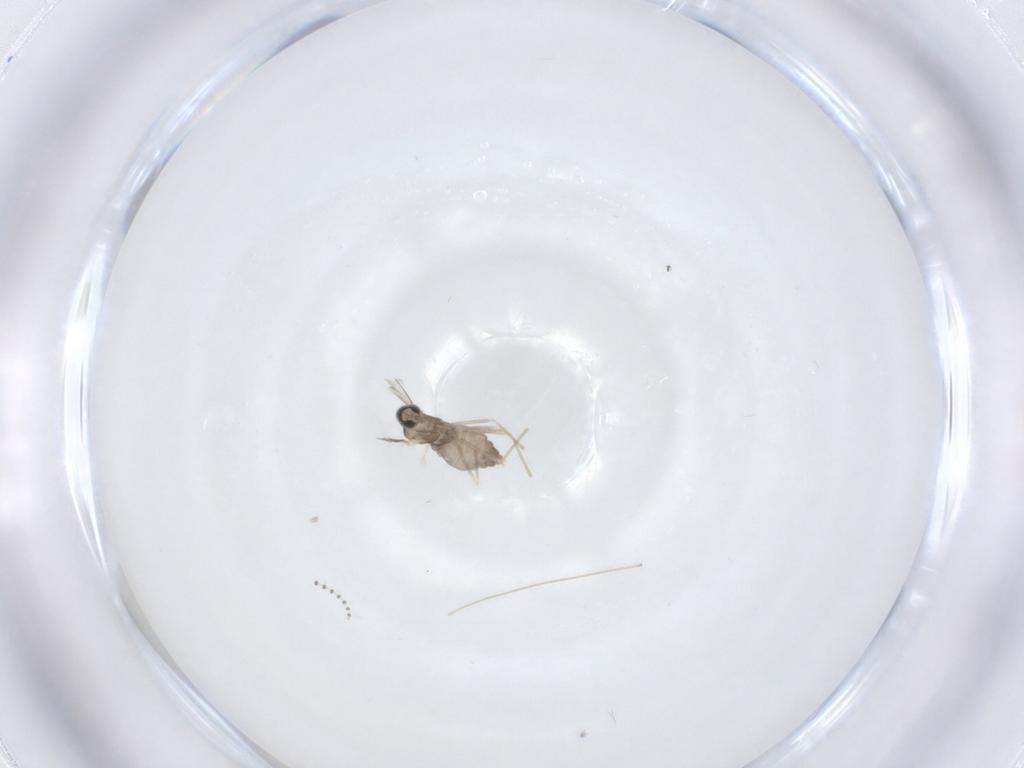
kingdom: Animalia
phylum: Arthropoda
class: Insecta
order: Diptera
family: Cecidomyiidae
